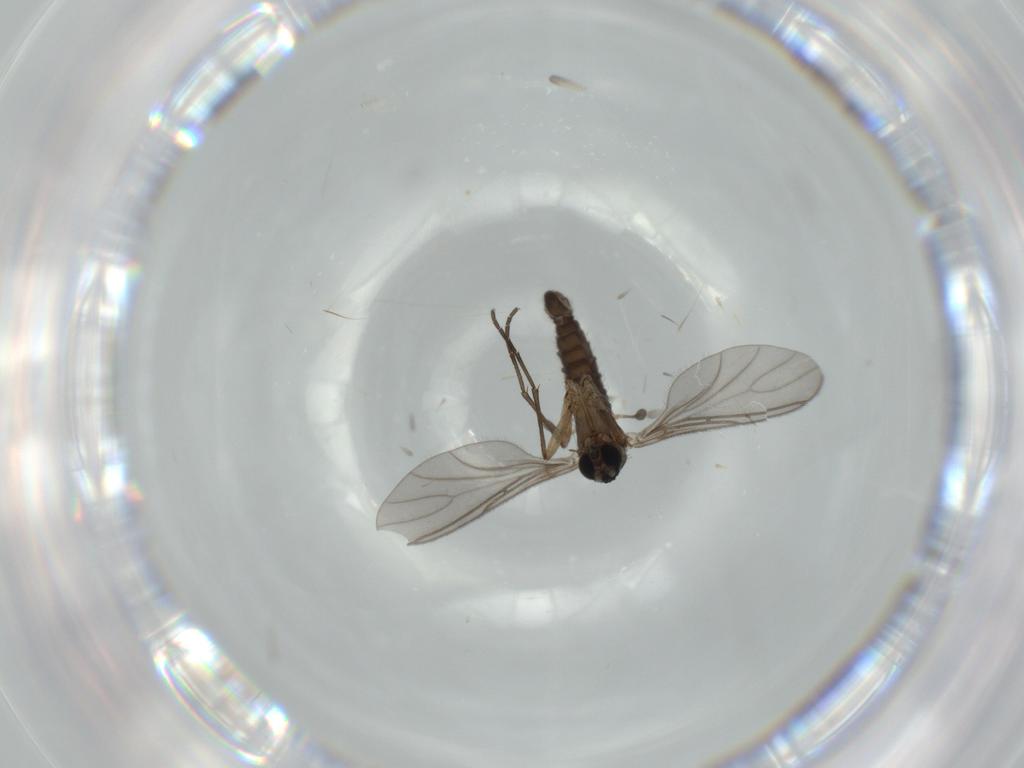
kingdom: Animalia
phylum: Arthropoda
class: Insecta
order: Diptera
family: Sciaridae
